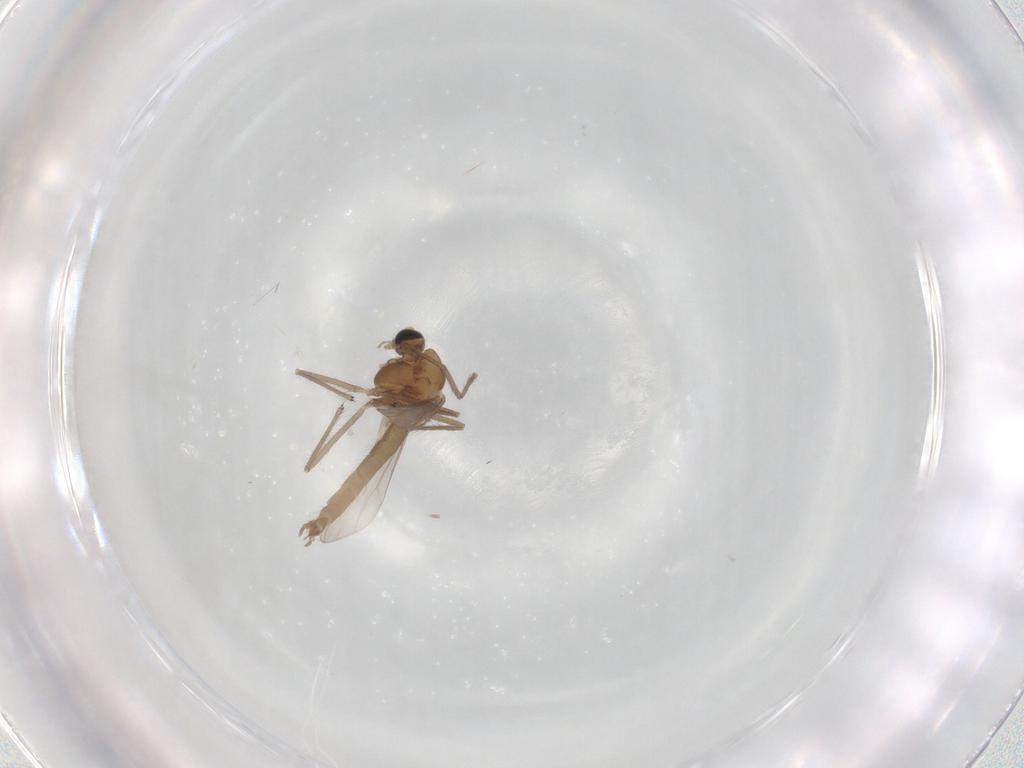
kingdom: Animalia
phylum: Arthropoda
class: Insecta
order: Diptera
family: Chironomidae
